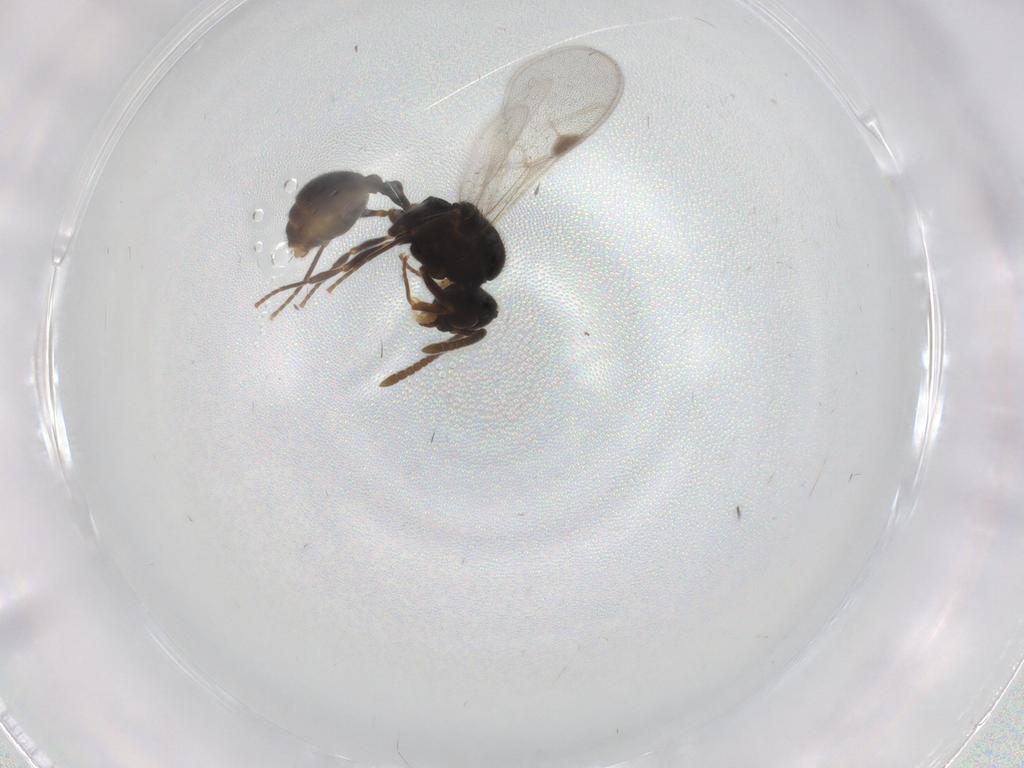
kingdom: Animalia
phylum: Arthropoda
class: Insecta
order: Hymenoptera
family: Formicidae
